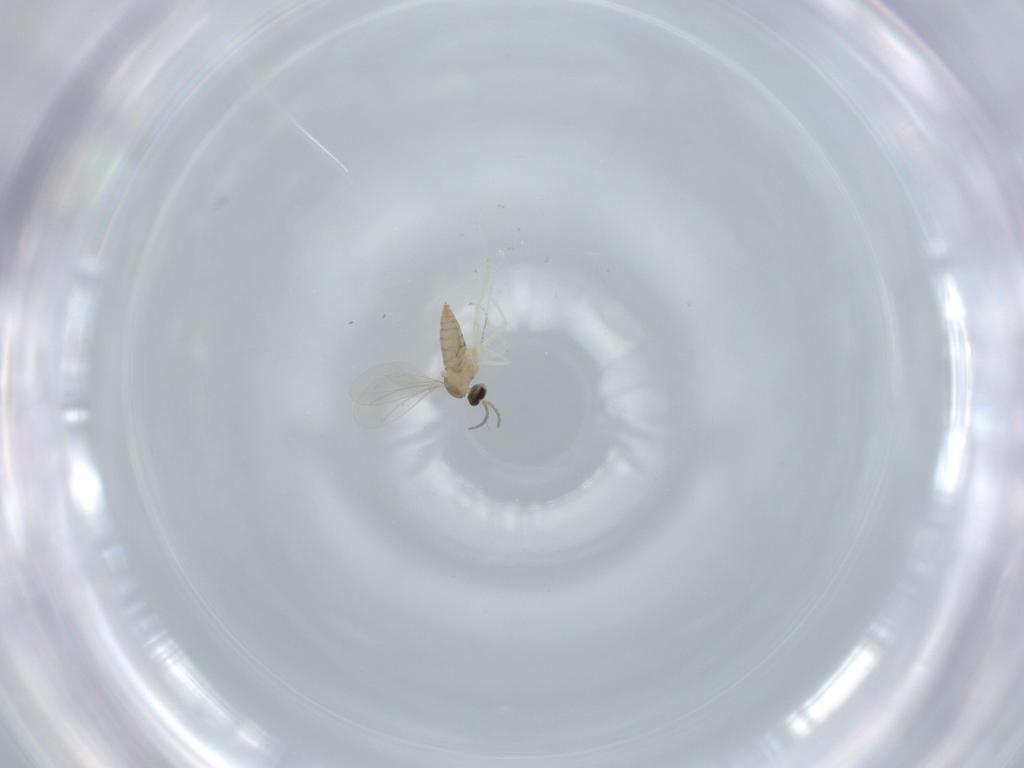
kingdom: Animalia
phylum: Arthropoda
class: Insecta
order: Diptera
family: Cecidomyiidae
